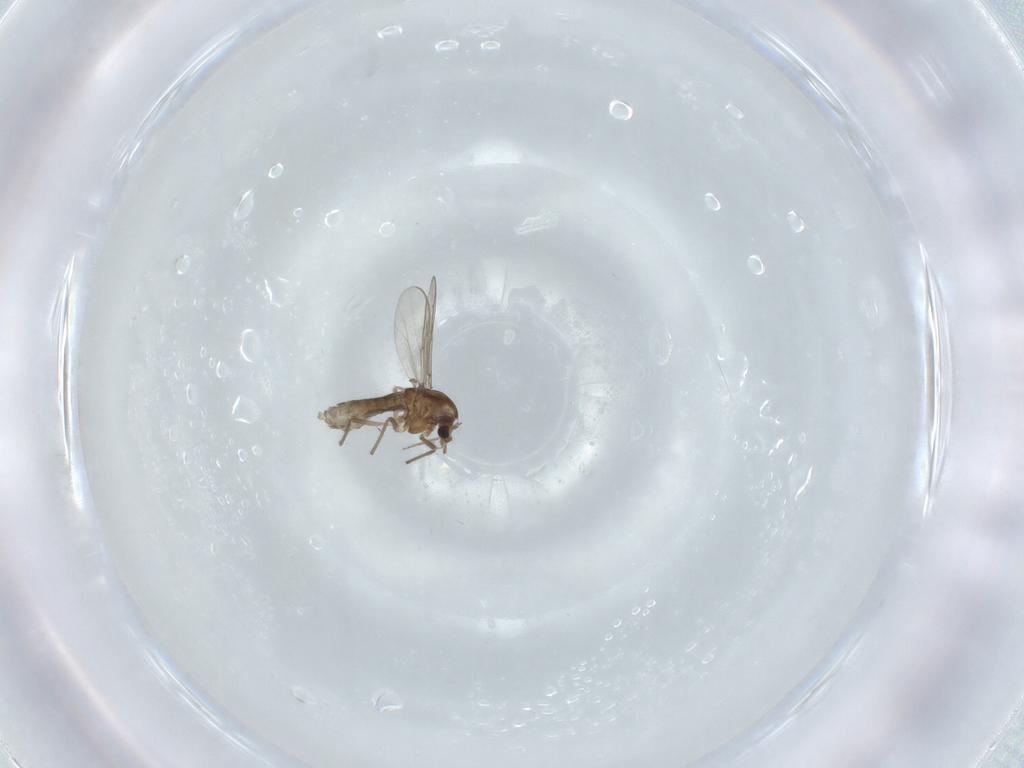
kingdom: Animalia
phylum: Arthropoda
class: Insecta
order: Diptera
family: Chironomidae
